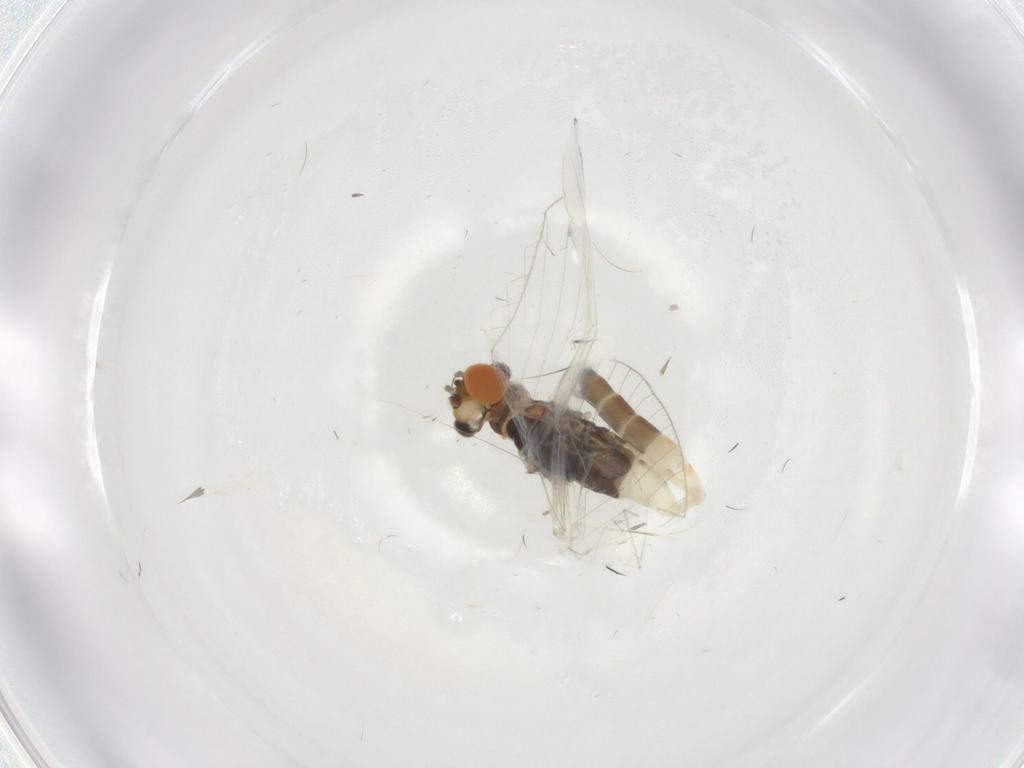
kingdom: Animalia
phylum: Arthropoda
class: Insecta
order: Ephemeroptera
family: Baetidae
